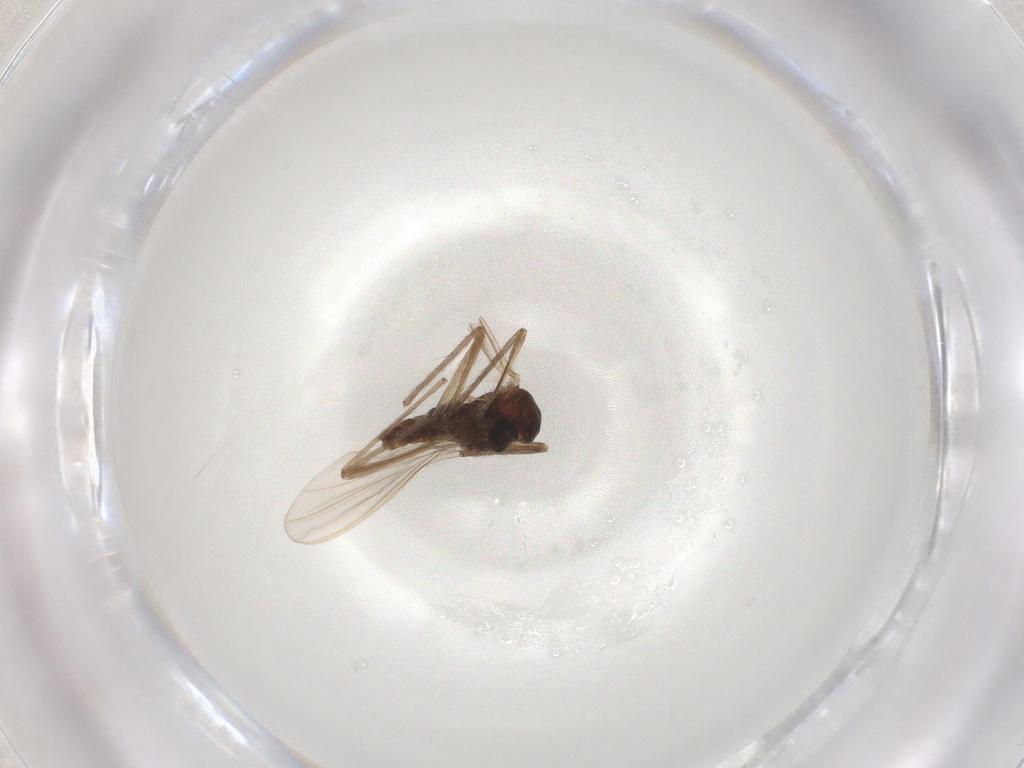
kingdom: Animalia
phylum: Arthropoda
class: Insecta
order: Diptera
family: Chironomidae
